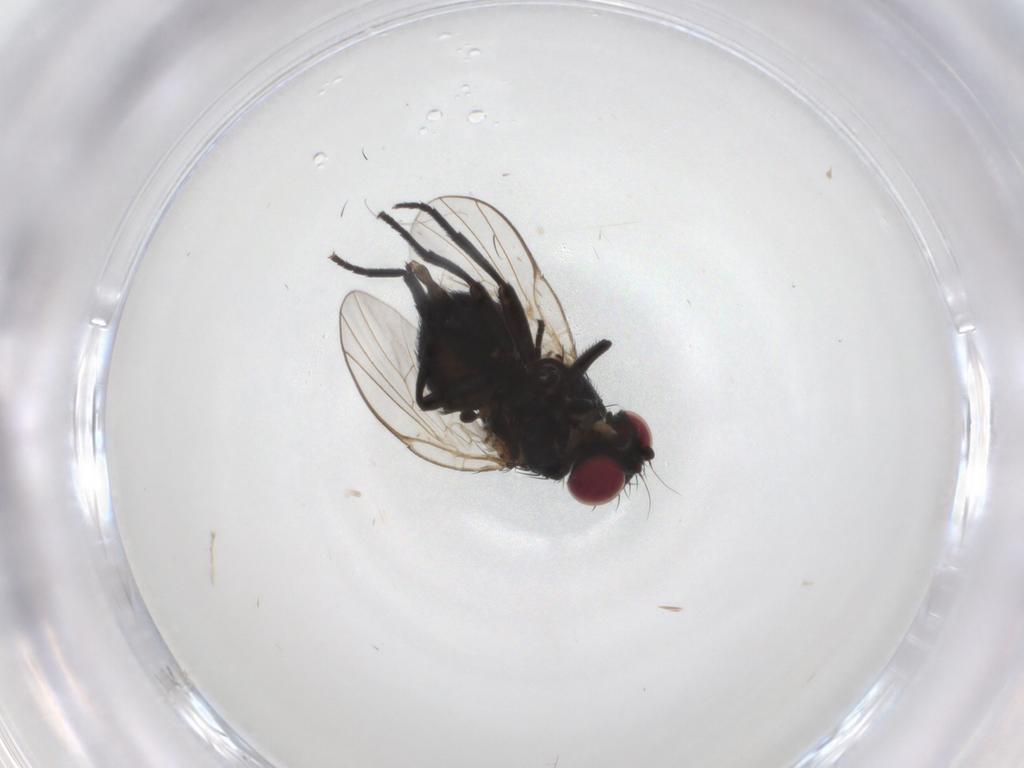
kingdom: Animalia
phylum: Arthropoda
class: Insecta
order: Diptera
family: Agromyzidae
